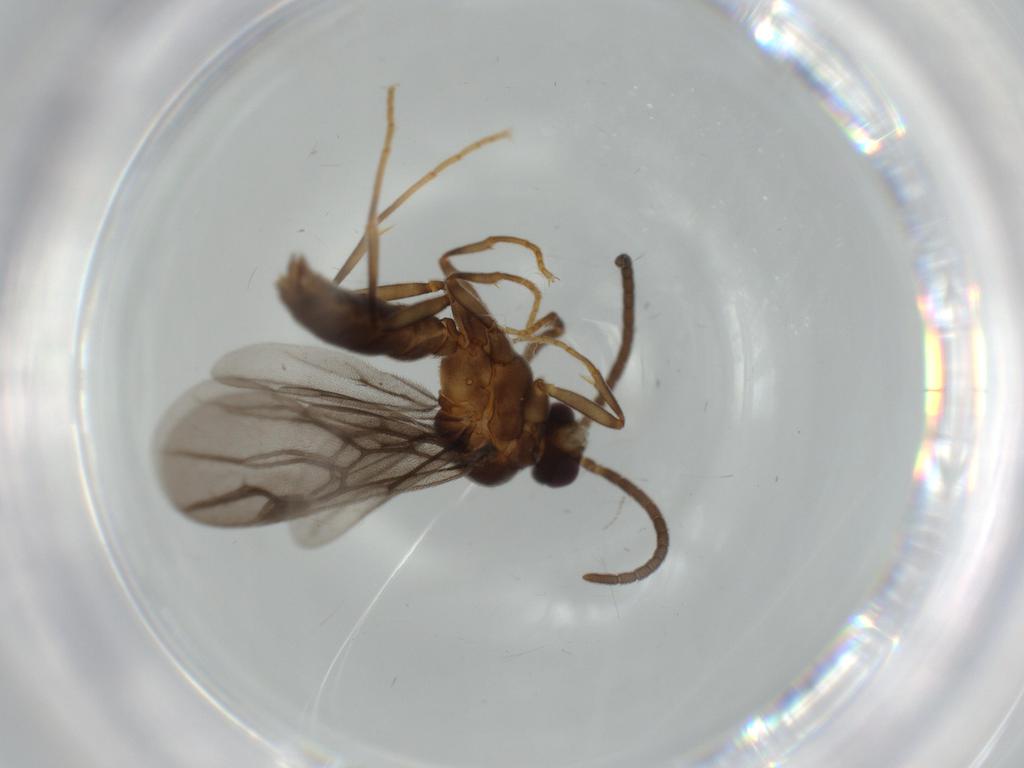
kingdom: Animalia
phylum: Arthropoda
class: Insecta
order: Hymenoptera
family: Formicidae
